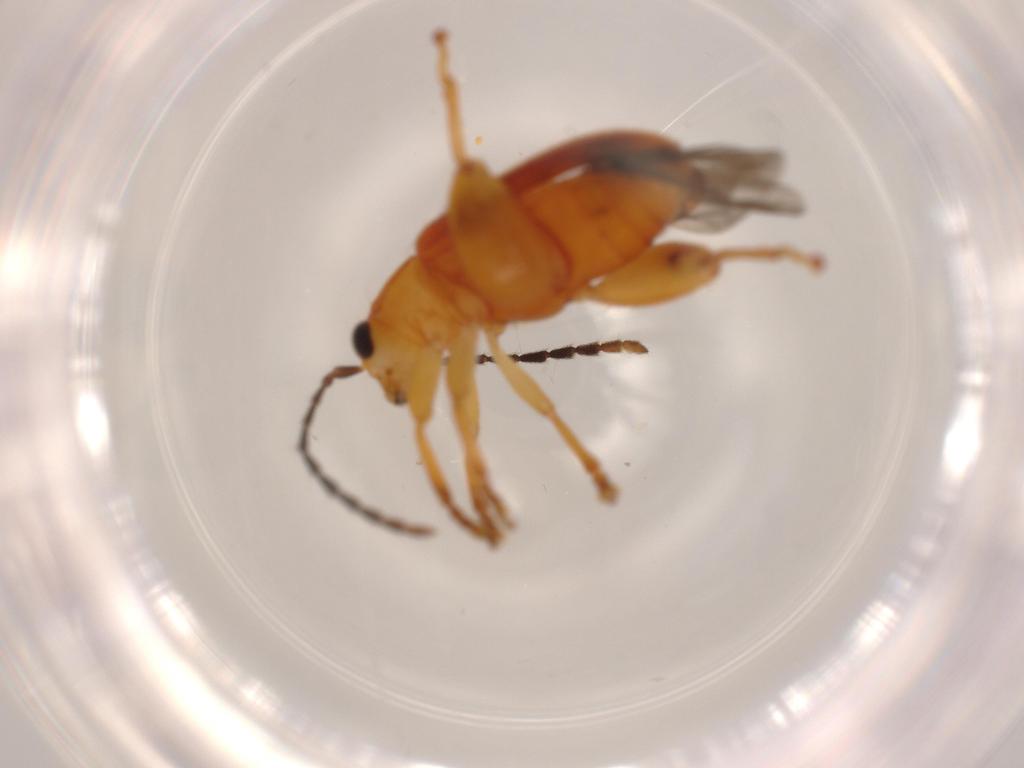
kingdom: Animalia
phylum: Arthropoda
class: Insecta
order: Coleoptera
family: Chrysomelidae
